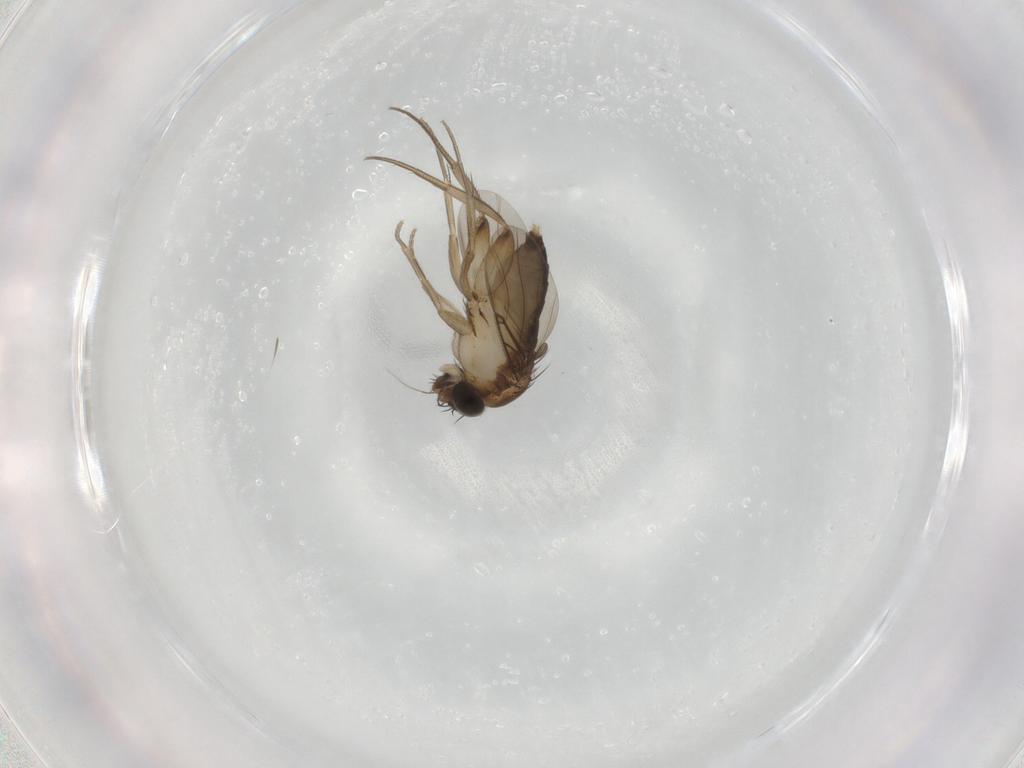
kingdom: Animalia
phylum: Arthropoda
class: Insecta
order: Diptera
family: Phoridae
